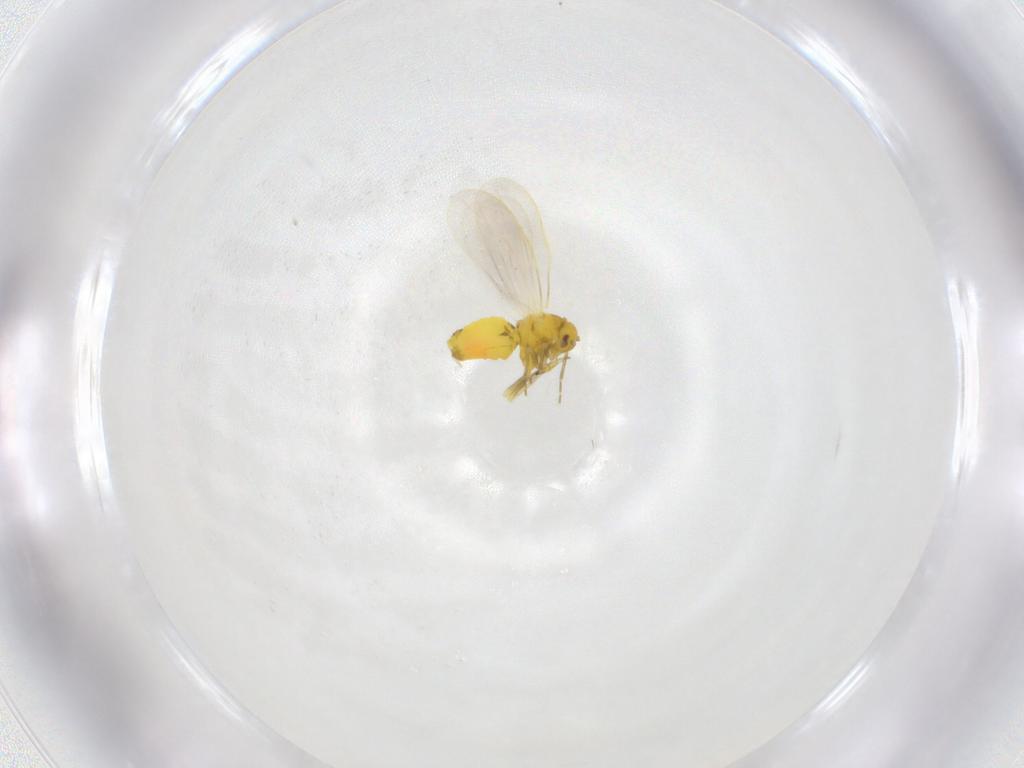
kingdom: Animalia
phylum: Arthropoda
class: Insecta
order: Hemiptera
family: Aleyrodidae
